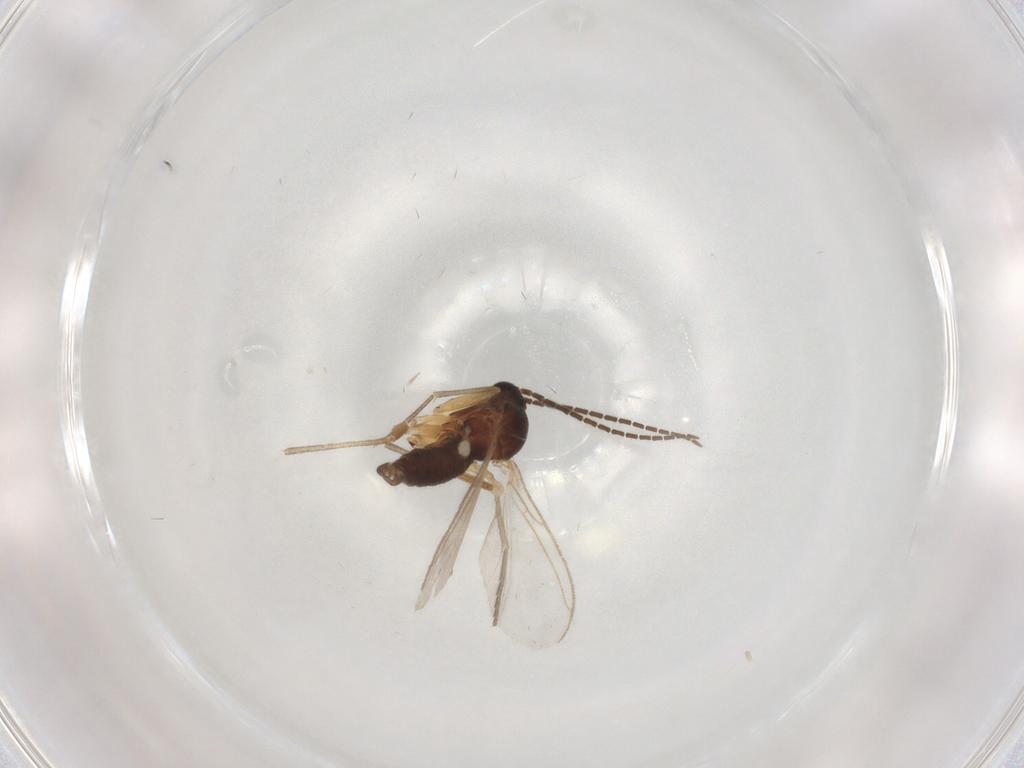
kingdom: Animalia
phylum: Arthropoda
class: Insecta
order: Diptera
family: Sciaridae
